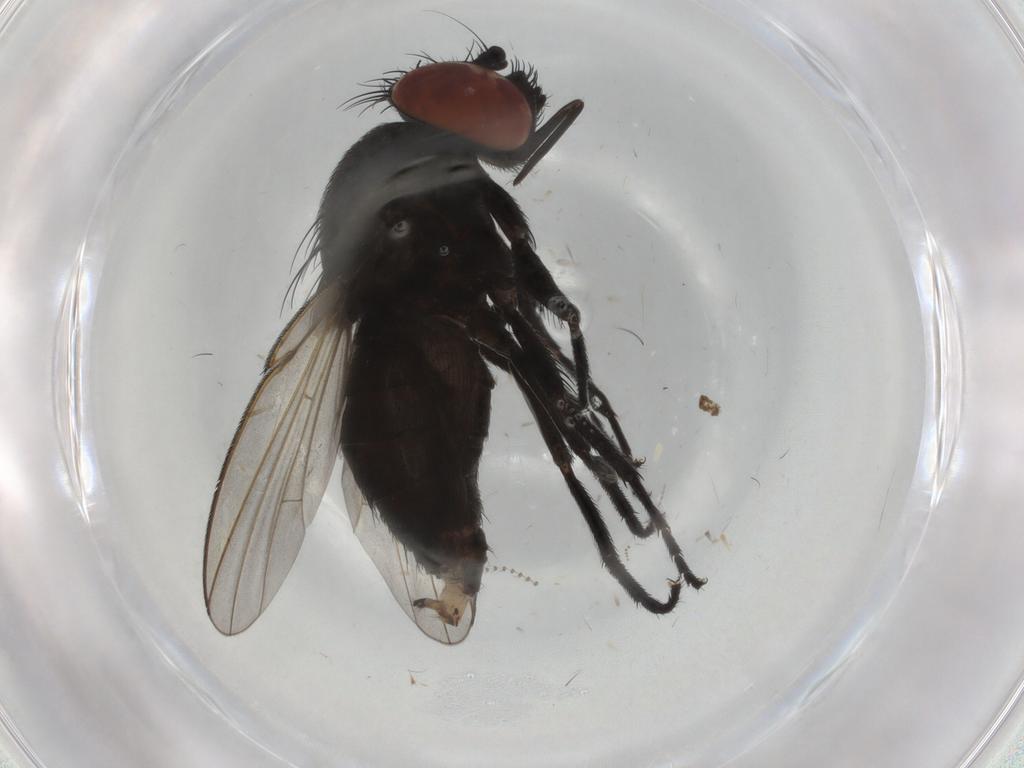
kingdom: Animalia
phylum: Arthropoda
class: Insecta
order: Diptera
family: Milichiidae
